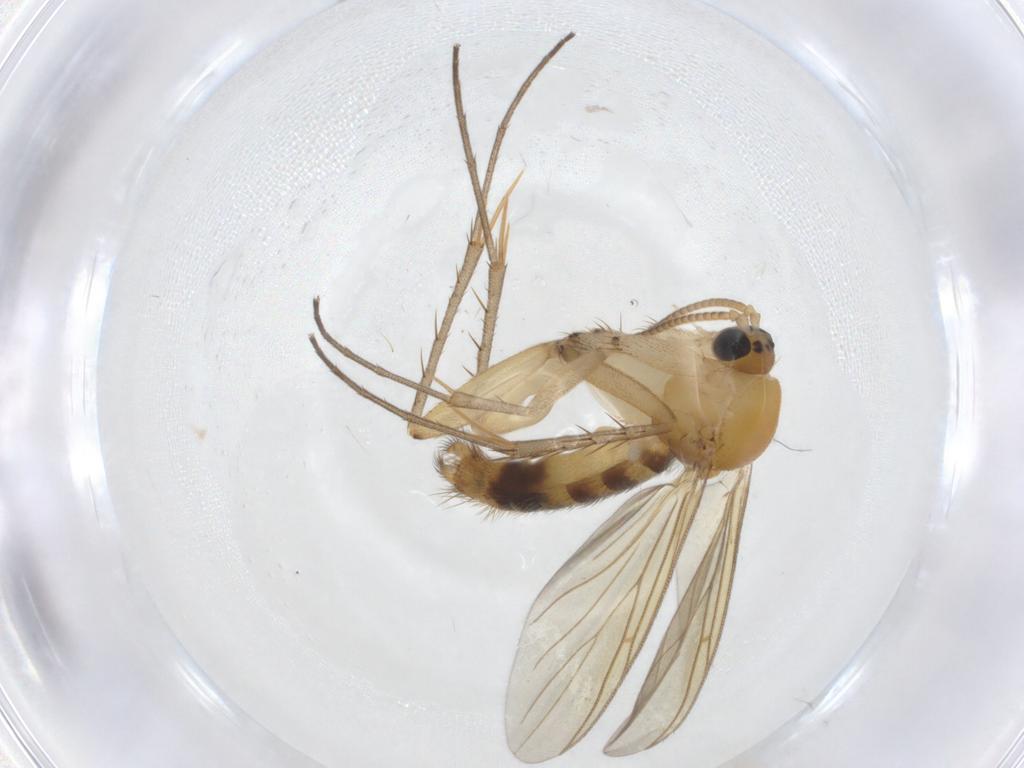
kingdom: Animalia
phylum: Arthropoda
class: Insecta
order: Diptera
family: Mycetophilidae
